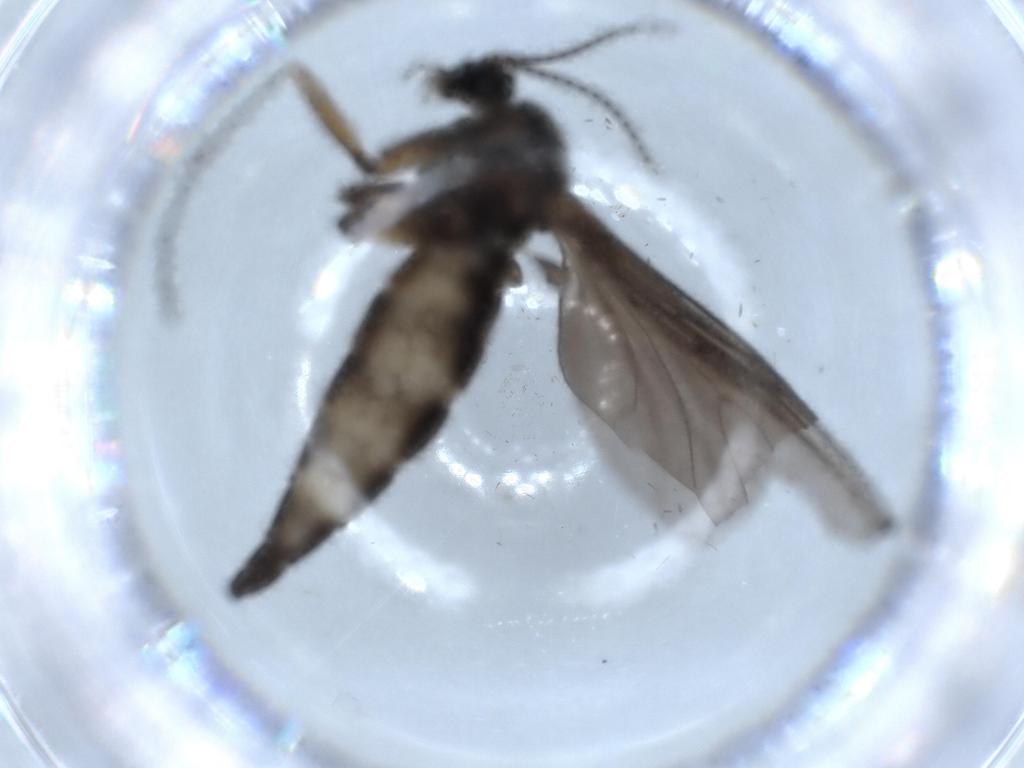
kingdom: Animalia
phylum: Arthropoda
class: Insecta
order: Diptera
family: Sciaridae
